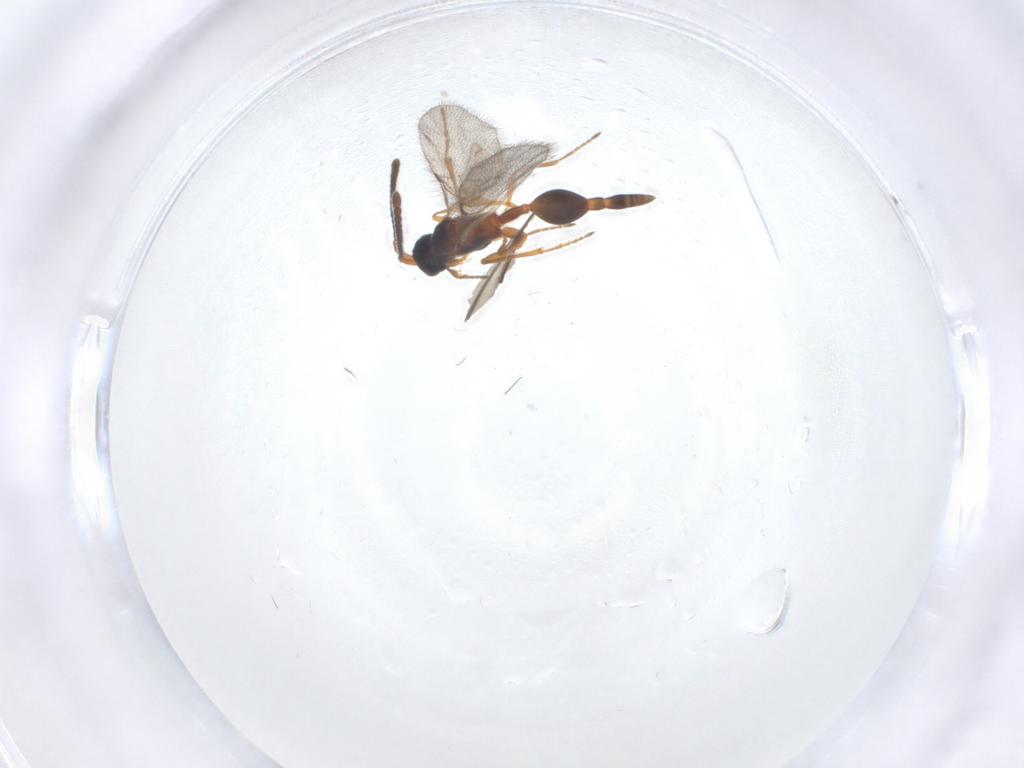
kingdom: Animalia
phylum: Arthropoda
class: Insecta
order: Hymenoptera
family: Diapriidae
